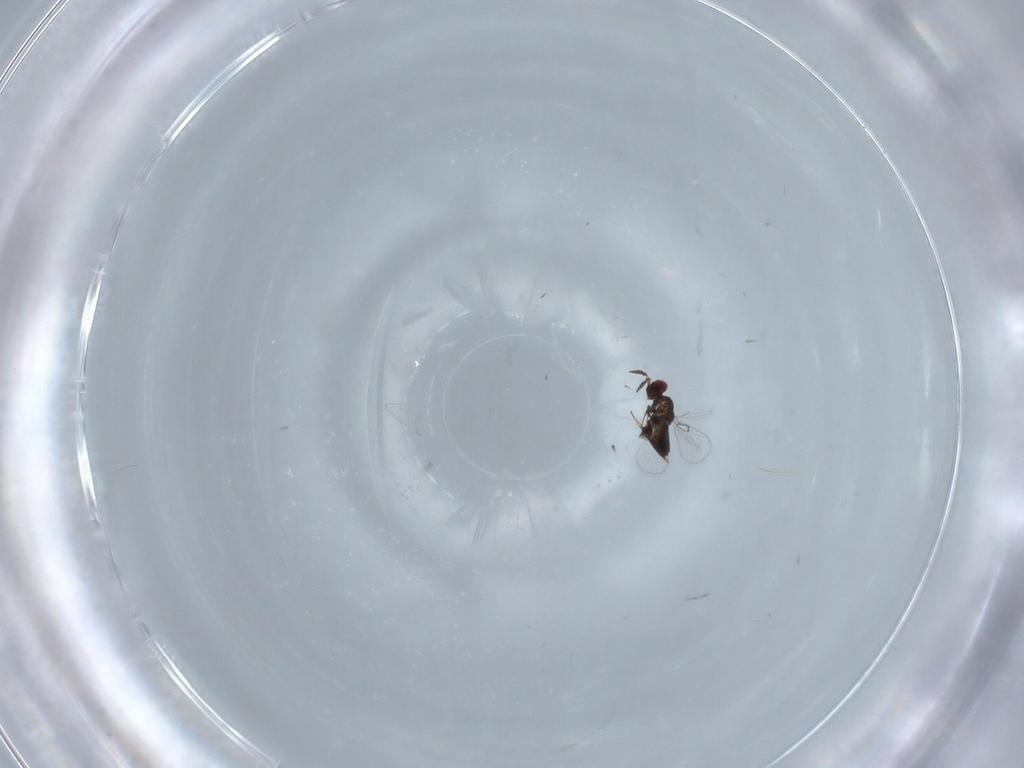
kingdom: Animalia
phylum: Arthropoda
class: Insecta
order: Hymenoptera
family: Trichogrammatidae
